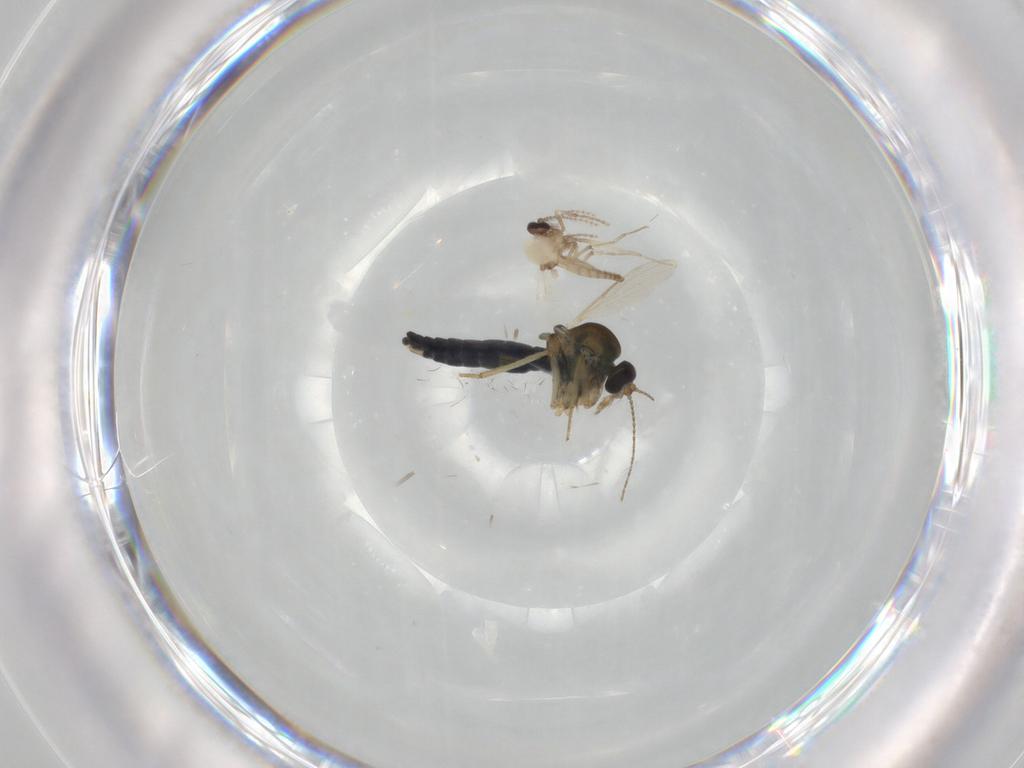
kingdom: Animalia
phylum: Arthropoda
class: Insecta
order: Diptera
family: Ceratopogonidae
